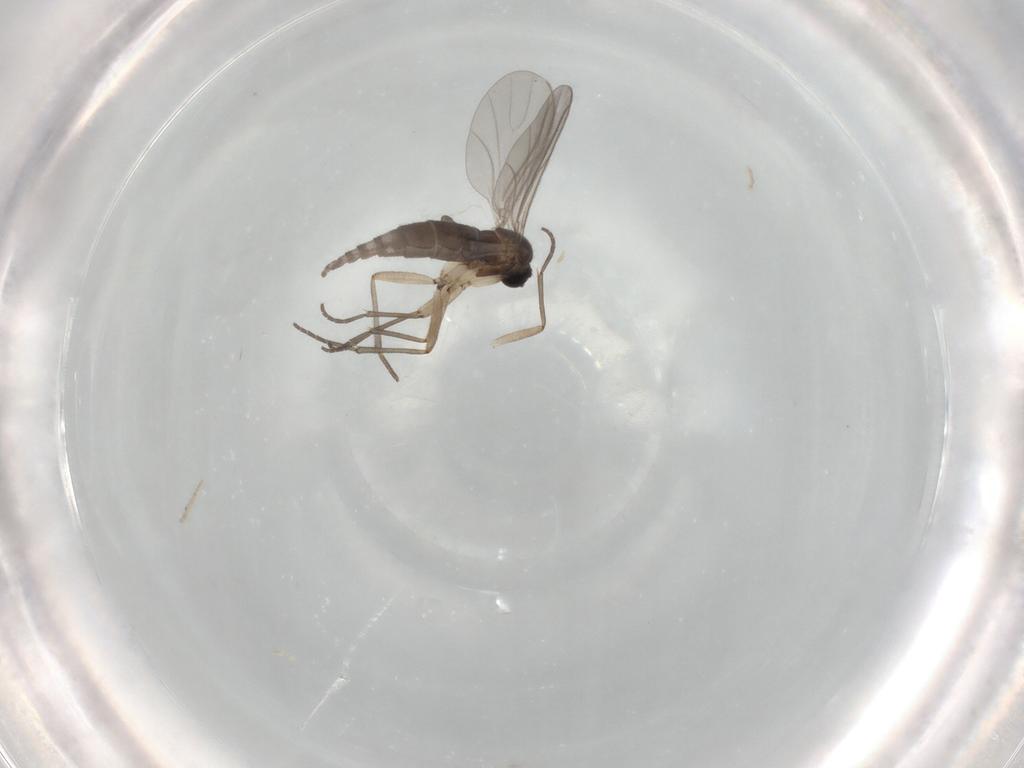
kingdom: Animalia
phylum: Arthropoda
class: Insecta
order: Diptera
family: Sciaridae
